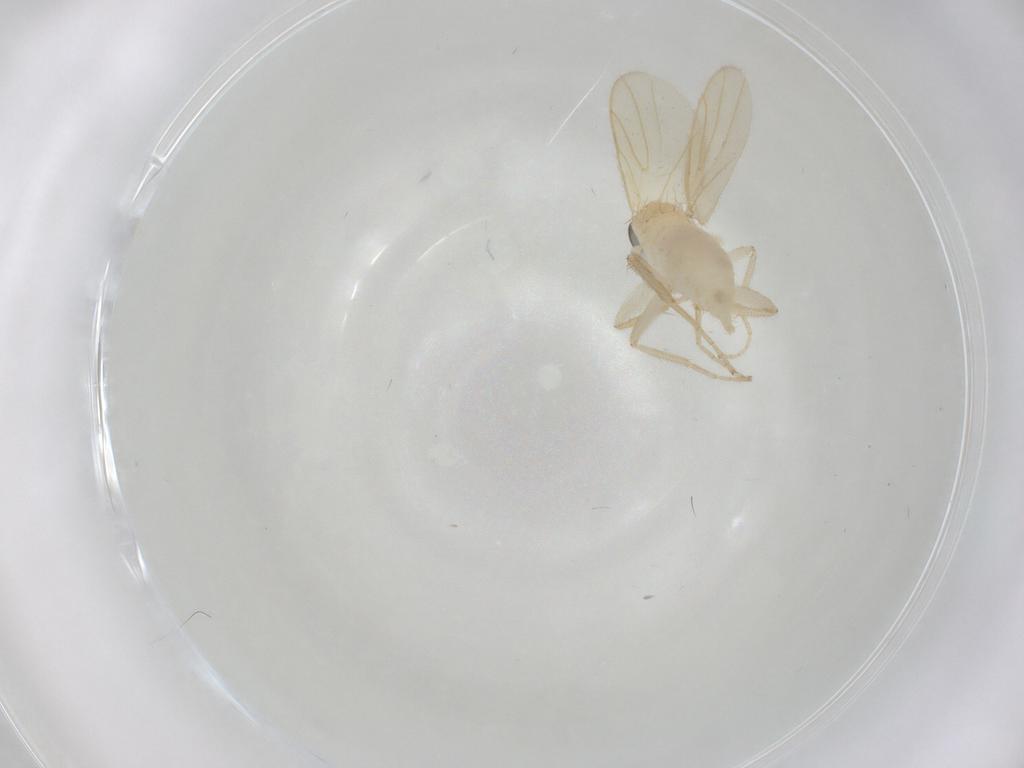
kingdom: Animalia
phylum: Arthropoda
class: Insecta
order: Diptera
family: Hybotidae
